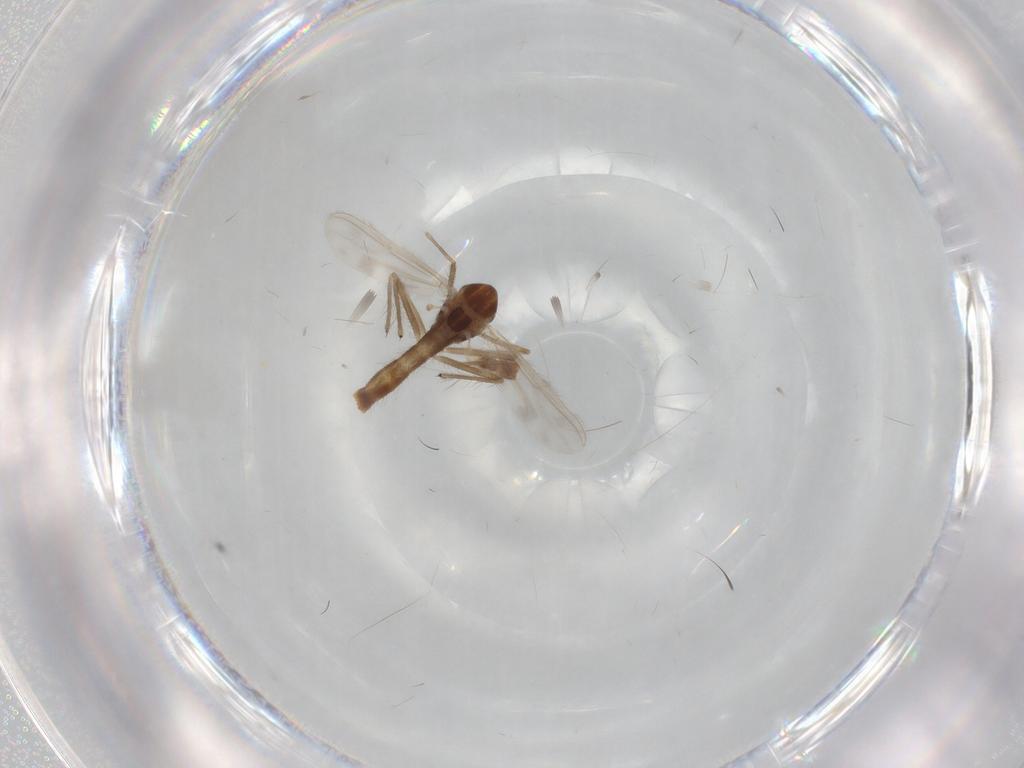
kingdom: Animalia
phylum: Arthropoda
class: Insecta
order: Diptera
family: Chironomidae
